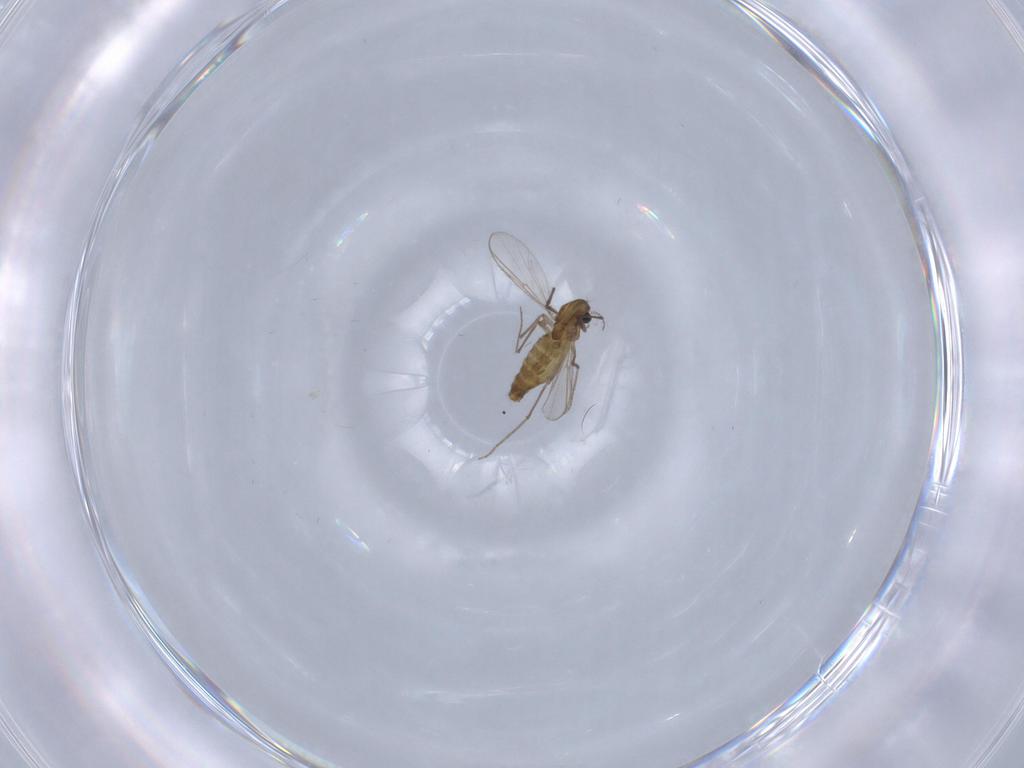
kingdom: Animalia
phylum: Arthropoda
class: Insecta
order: Diptera
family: Chironomidae
